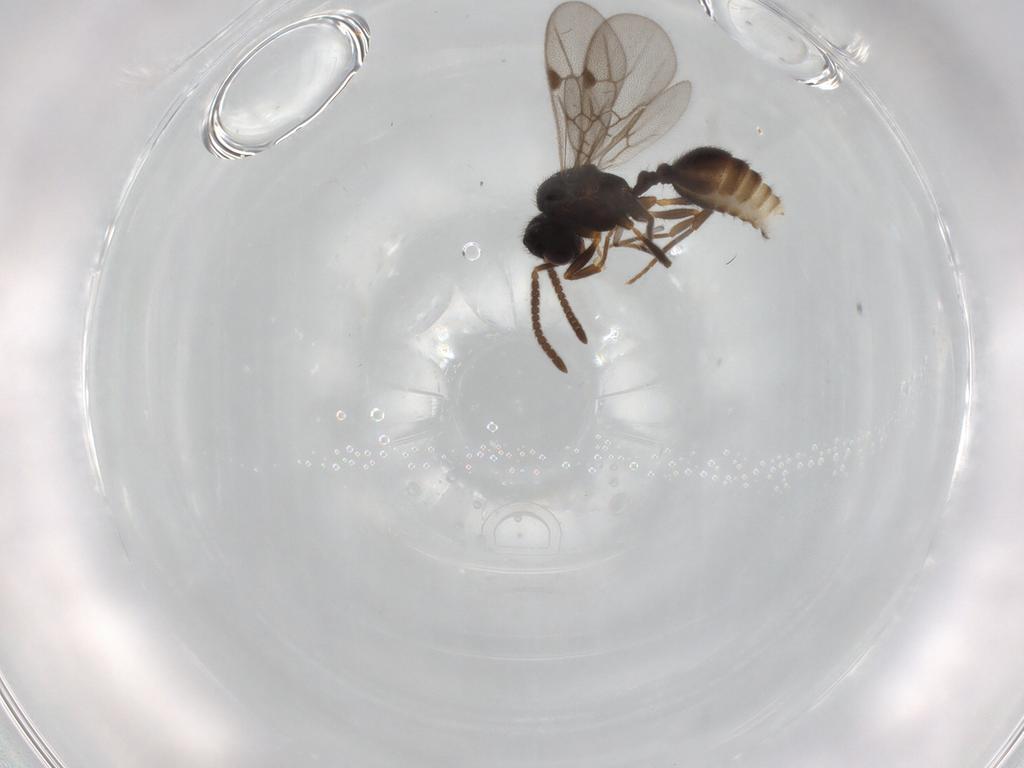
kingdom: Animalia
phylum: Arthropoda
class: Insecta
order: Hymenoptera
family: Formicidae
